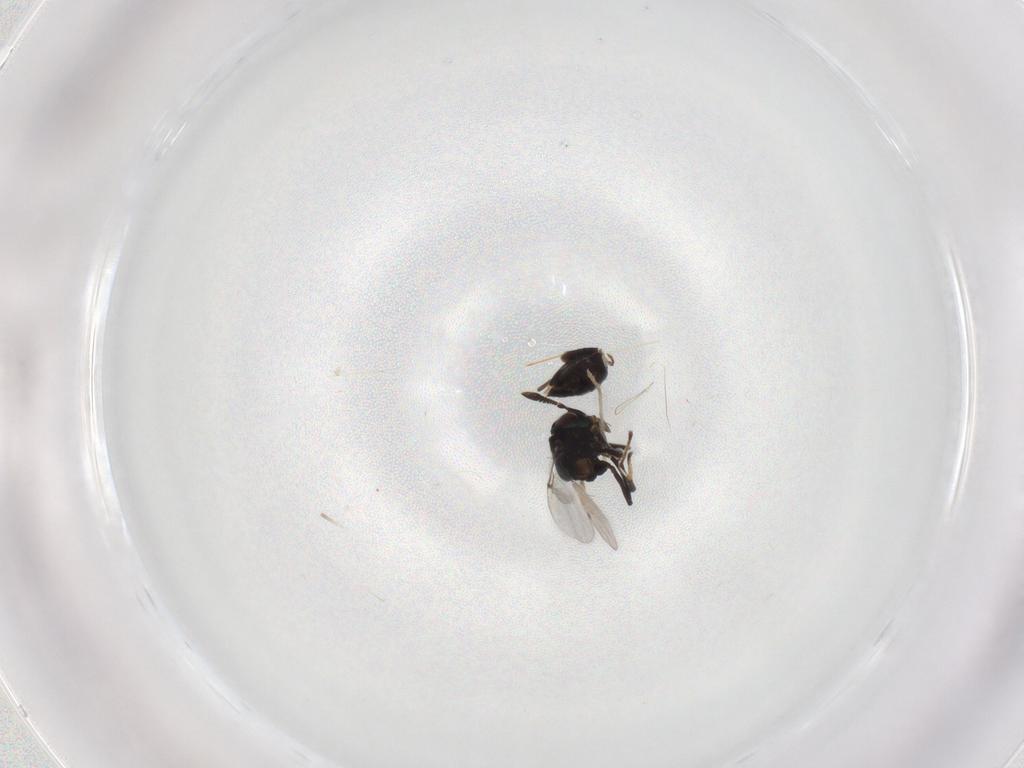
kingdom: Animalia
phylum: Arthropoda
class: Insecta
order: Hymenoptera
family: Encyrtidae
